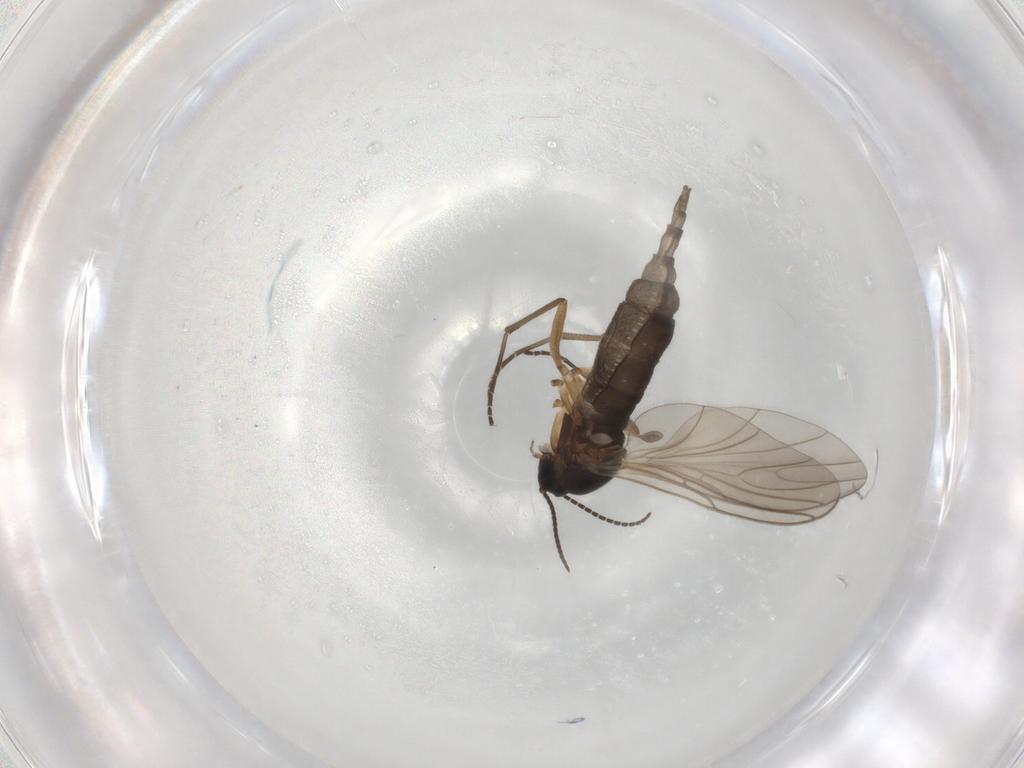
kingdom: Animalia
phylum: Arthropoda
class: Insecta
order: Diptera
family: Sciaridae
